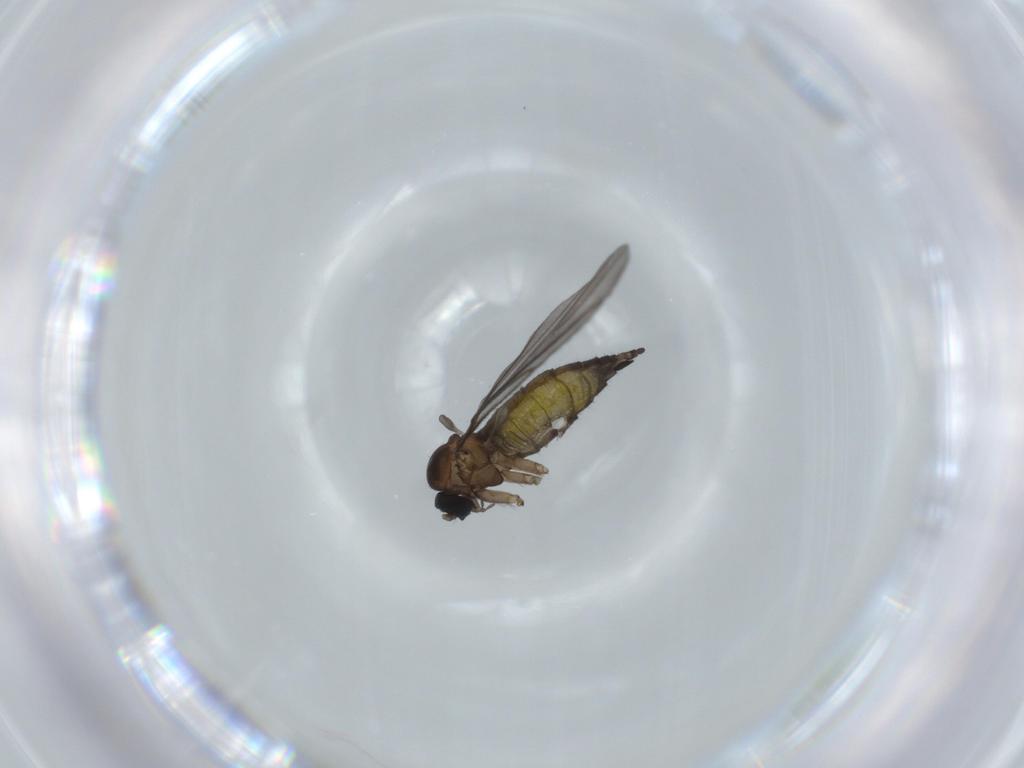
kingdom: Animalia
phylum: Arthropoda
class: Insecta
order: Diptera
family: Sciaridae
